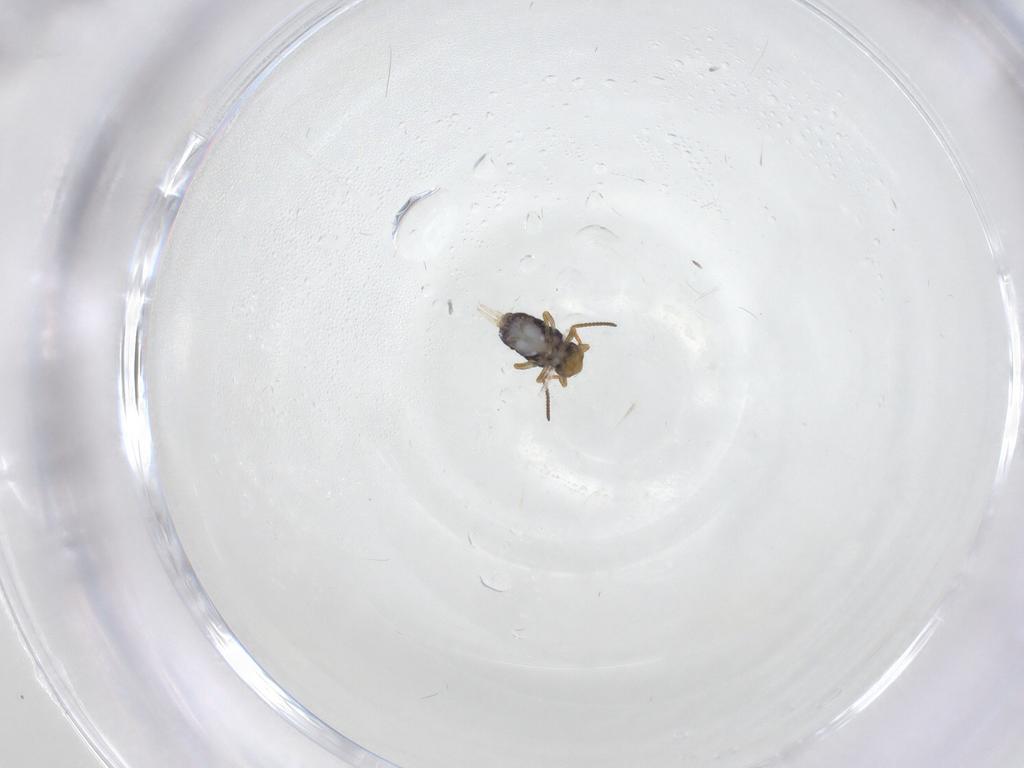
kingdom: Animalia
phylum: Arthropoda
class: Collembola
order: Symphypleona
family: Katiannidae
